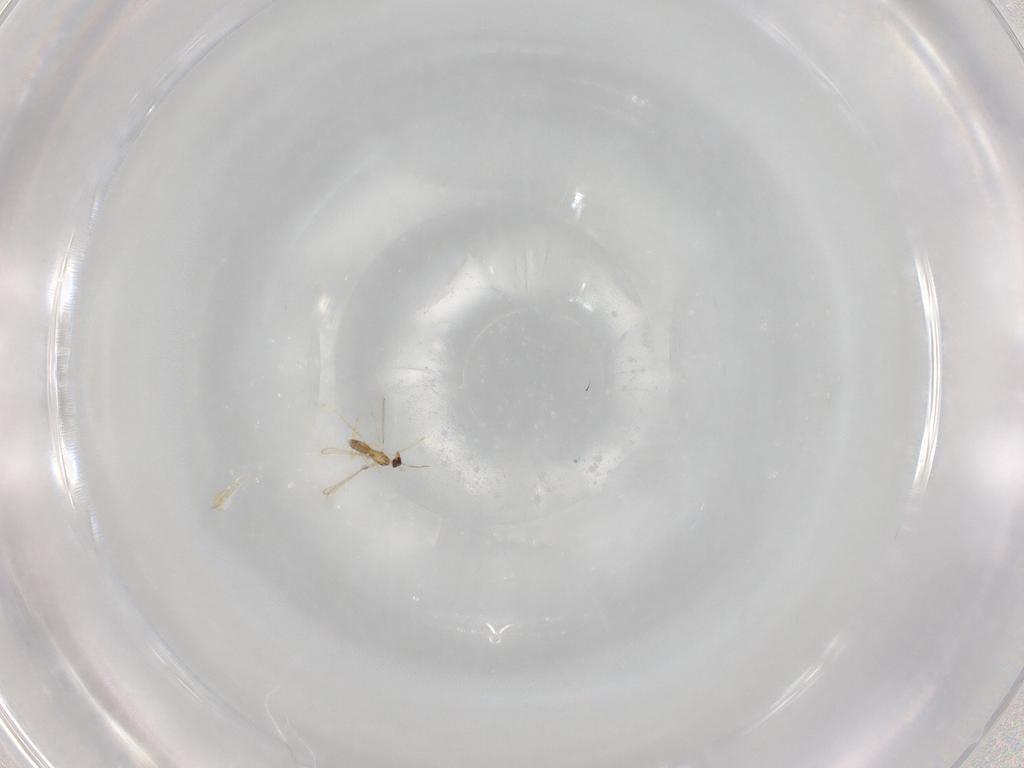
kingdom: Animalia
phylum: Arthropoda
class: Insecta
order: Hymenoptera
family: Mymaridae
